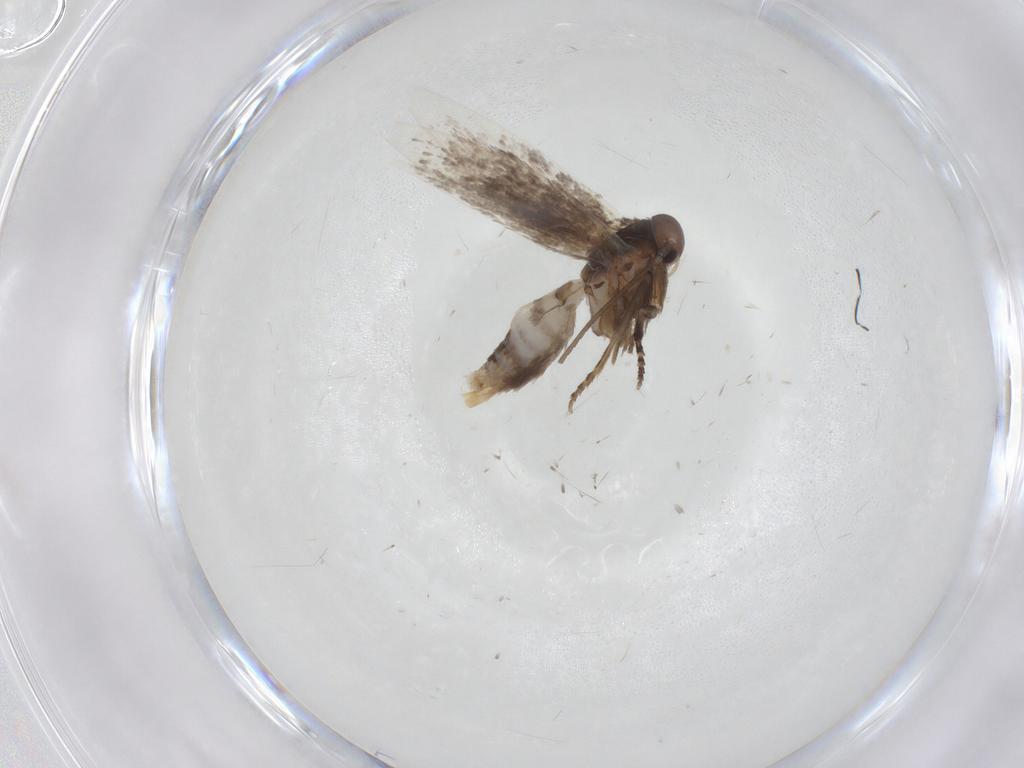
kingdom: Animalia
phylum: Arthropoda
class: Insecta
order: Lepidoptera
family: Elachistidae
